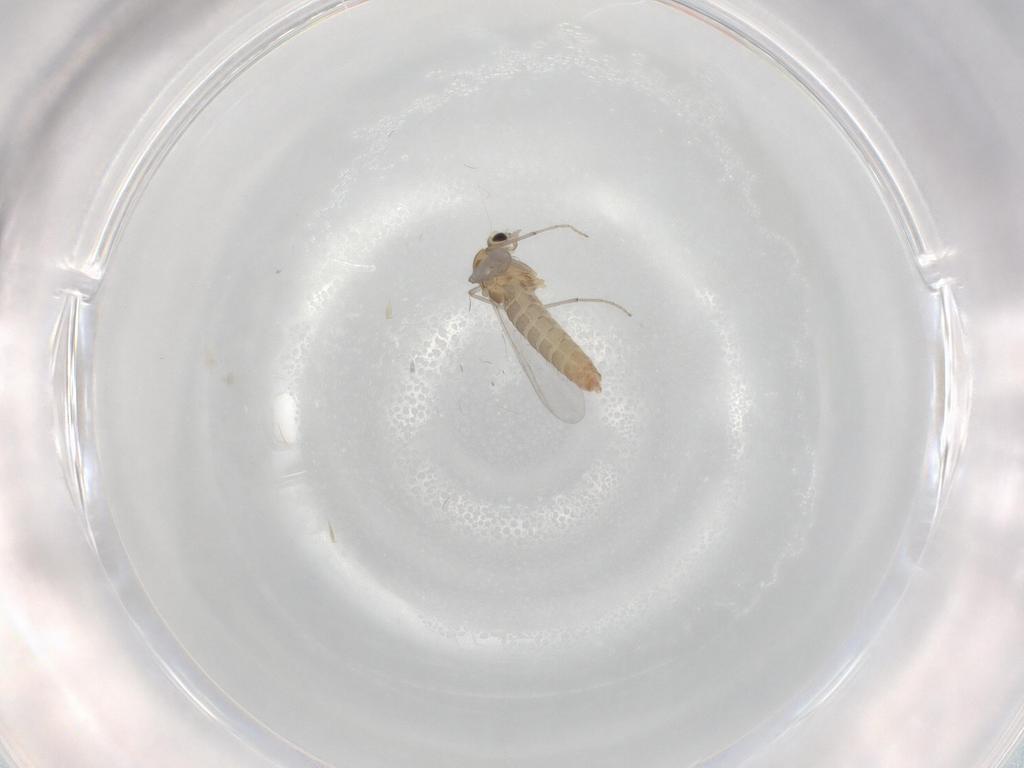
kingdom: Animalia
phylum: Arthropoda
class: Insecta
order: Diptera
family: Chironomidae
